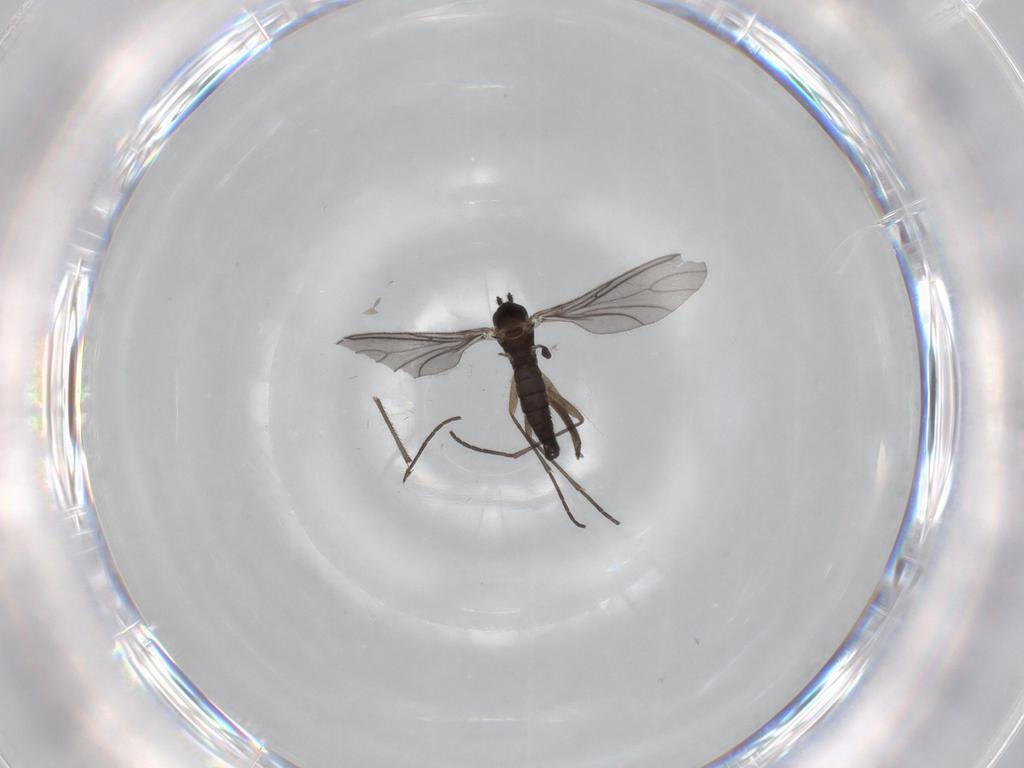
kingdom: Animalia
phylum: Arthropoda
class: Insecta
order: Diptera
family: Sciaridae
